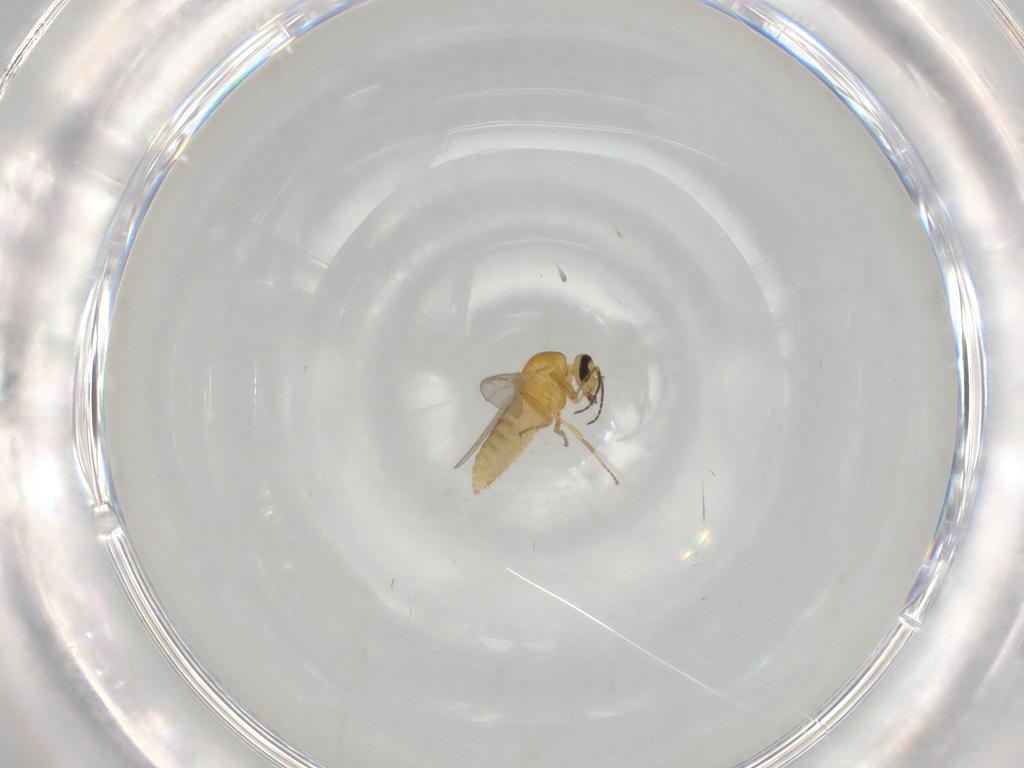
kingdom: Animalia
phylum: Arthropoda
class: Insecta
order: Diptera
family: Ceratopogonidae
